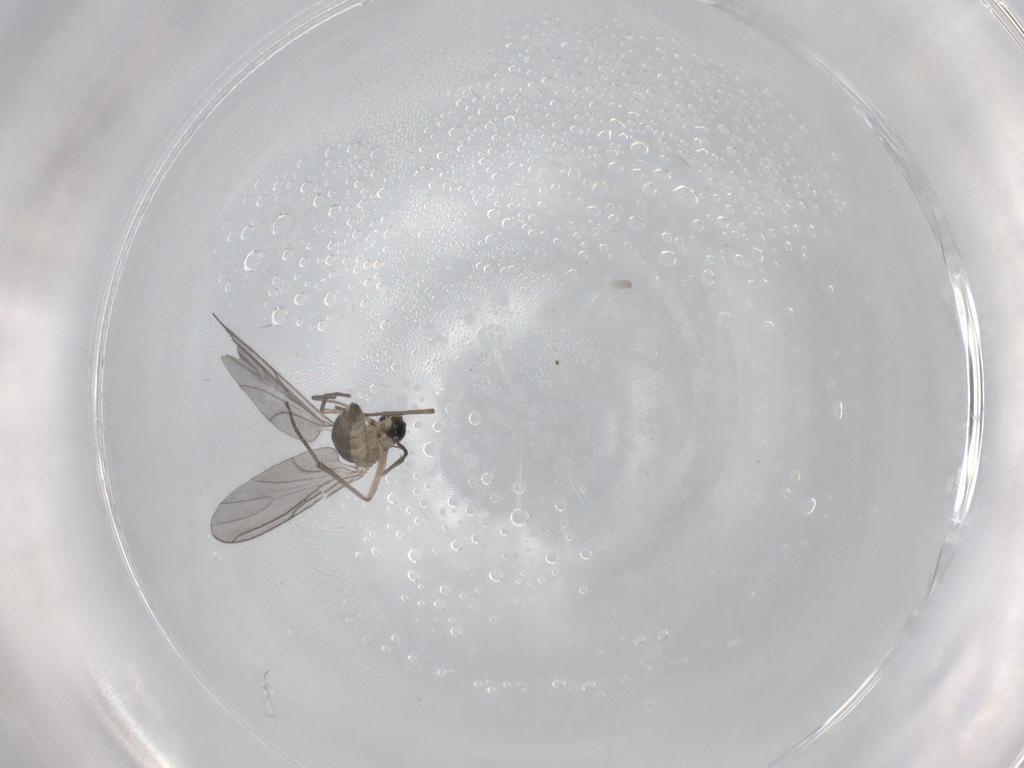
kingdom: Animalia
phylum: Arthropoda
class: Insecta
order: Diptera
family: Sciaridae
